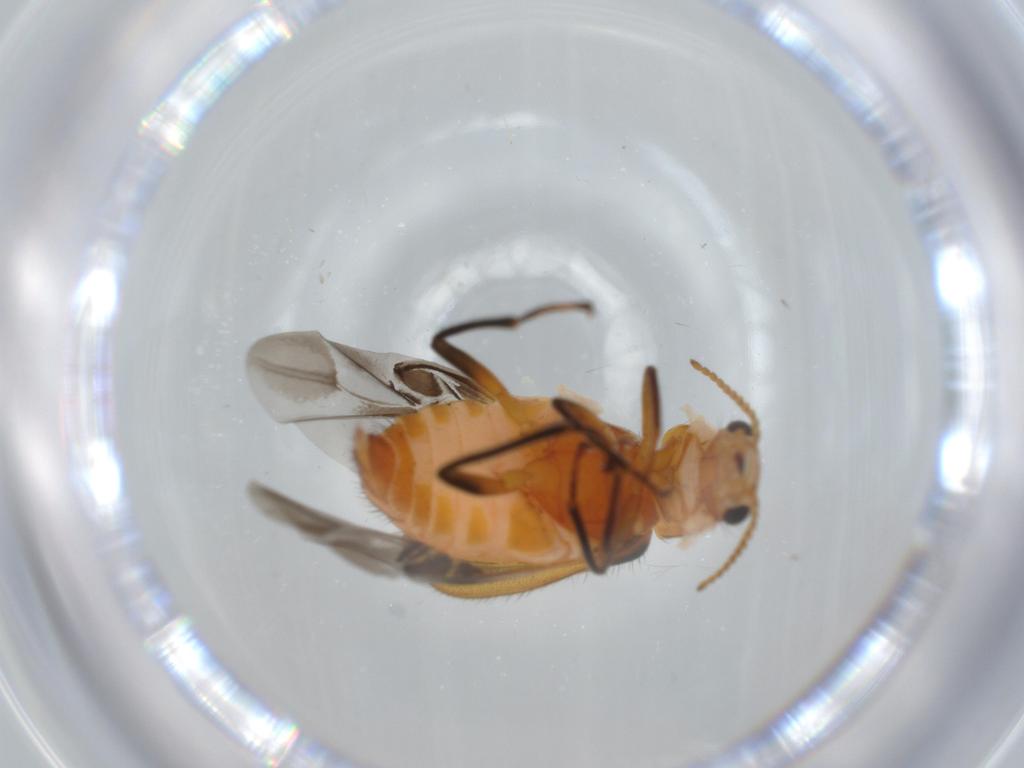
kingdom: Animalia
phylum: Arthropoda
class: Insecta
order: Coleoptera
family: Melyridae
